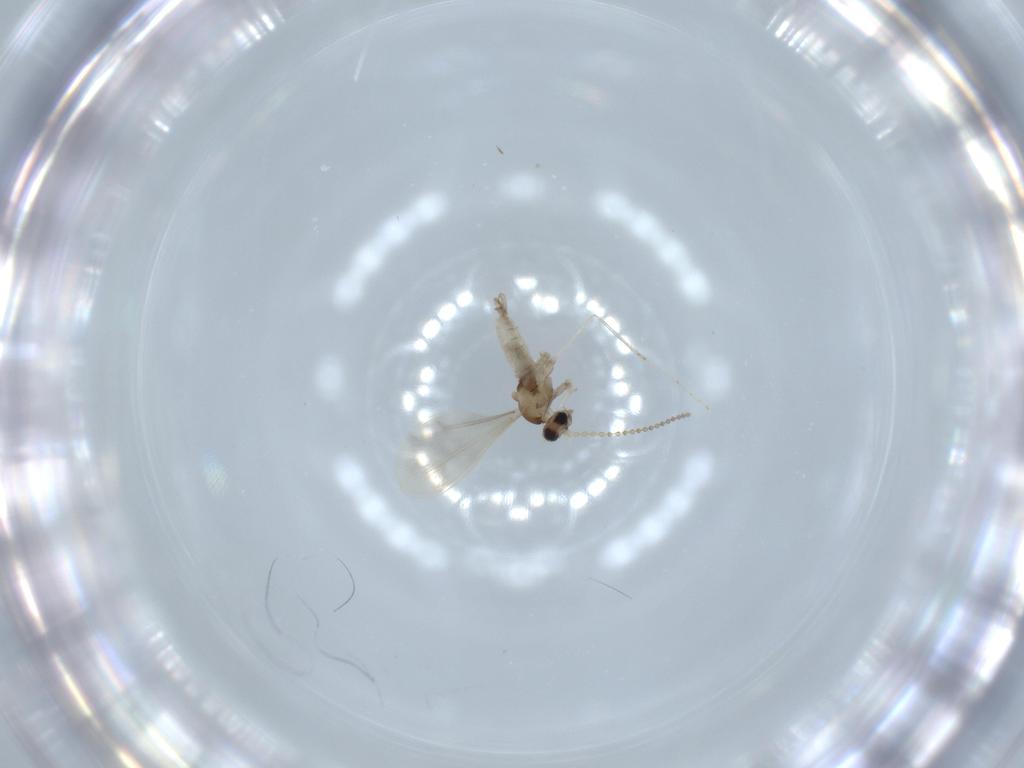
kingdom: Animalia
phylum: Arthropoda
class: Insecta
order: Diptera
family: Cecidomyiidae
